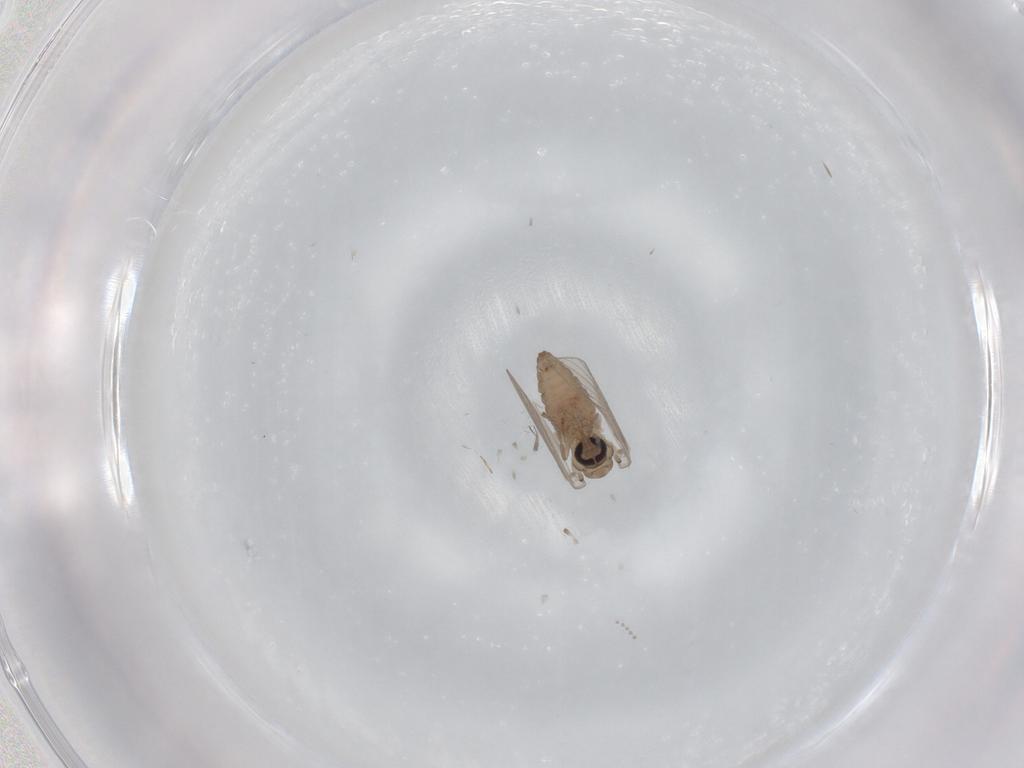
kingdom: Animalia
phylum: Arthropoda
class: Insecta
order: Diptera
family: Psychodidae
